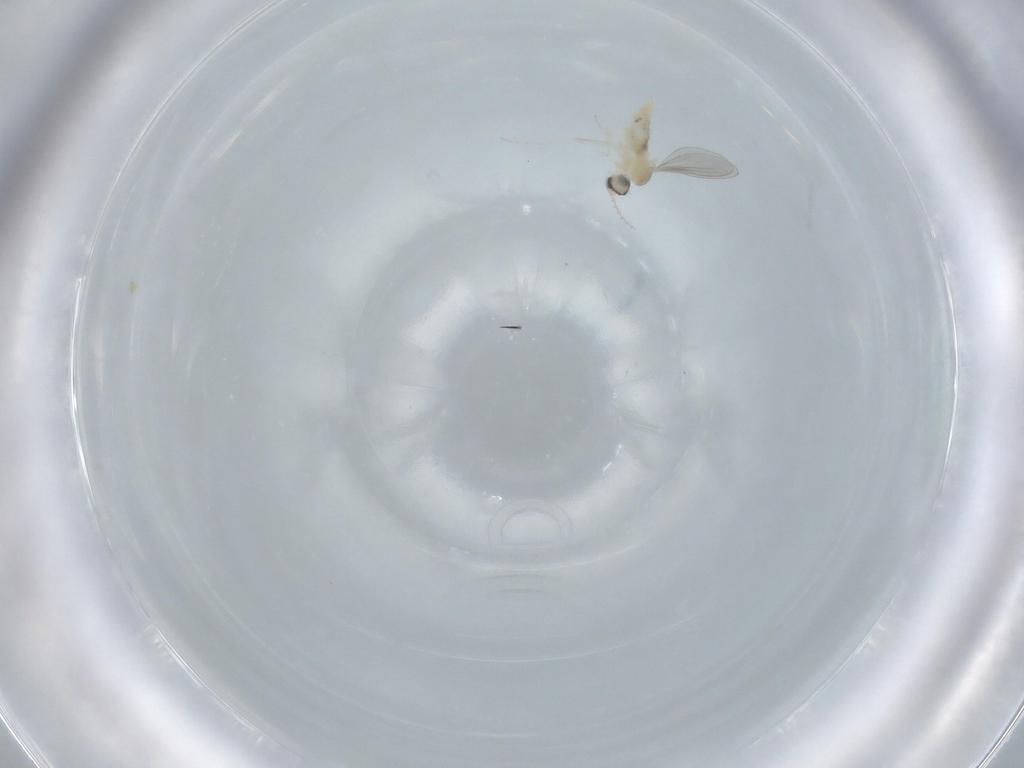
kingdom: Animalia
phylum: Arthropoda
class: Insecta
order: Diptera
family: Cecidomyiidae
